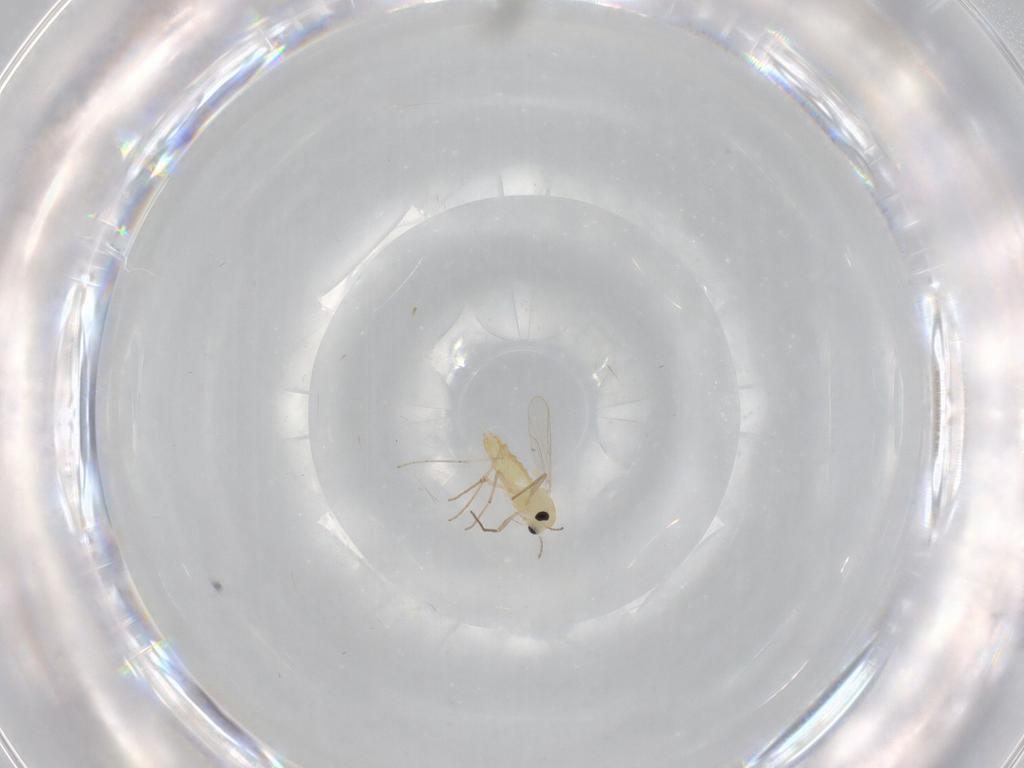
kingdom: Animalia
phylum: Arthropoda
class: Insecta
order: Diptera
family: Chironomidae
